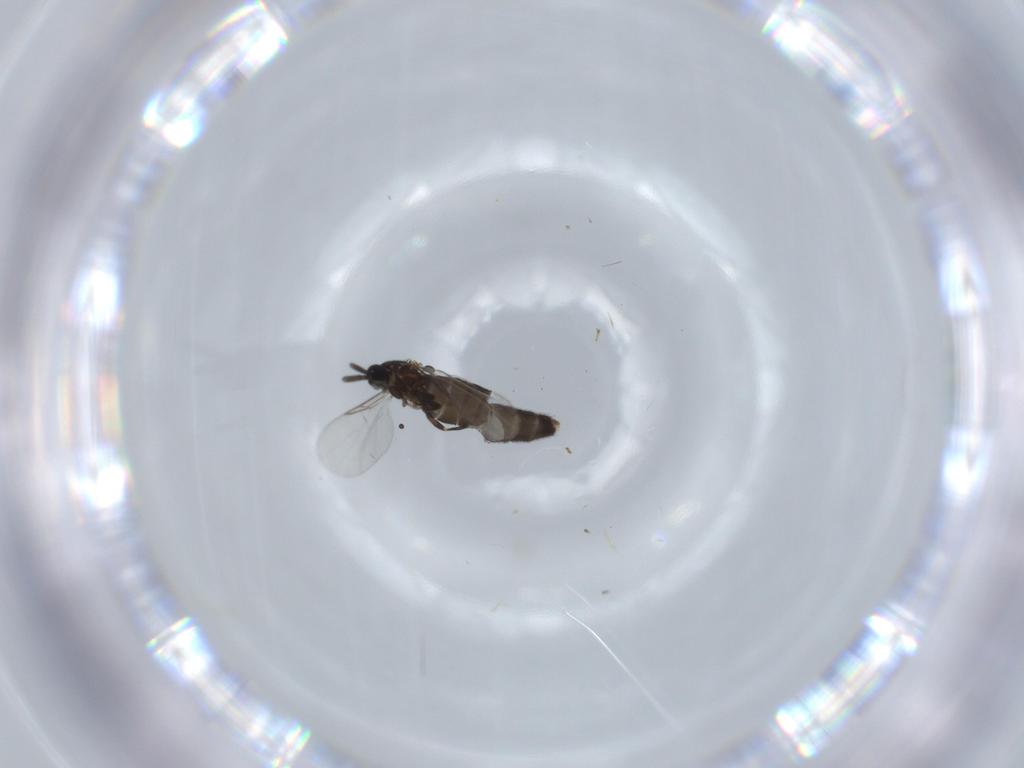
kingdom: Animalia
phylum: Arthropoda
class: Insecta
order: Diptera
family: Scatopsidae
